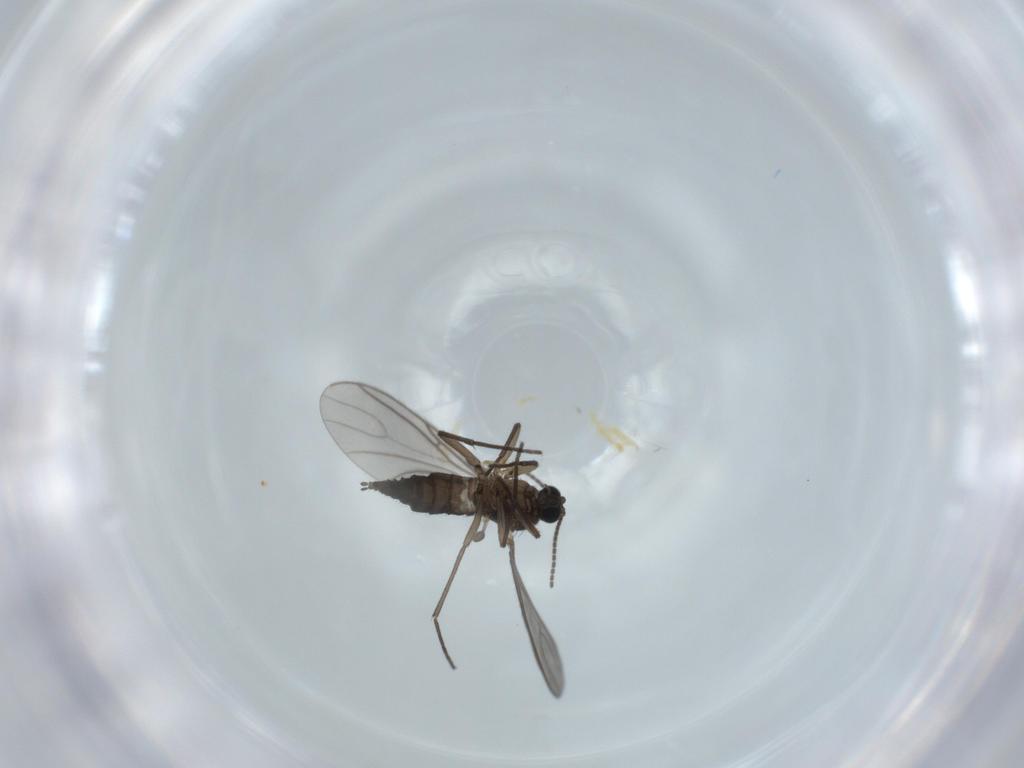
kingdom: Animalia
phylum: Arthropoda
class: Insecta
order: Diptera
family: Sciaridae
